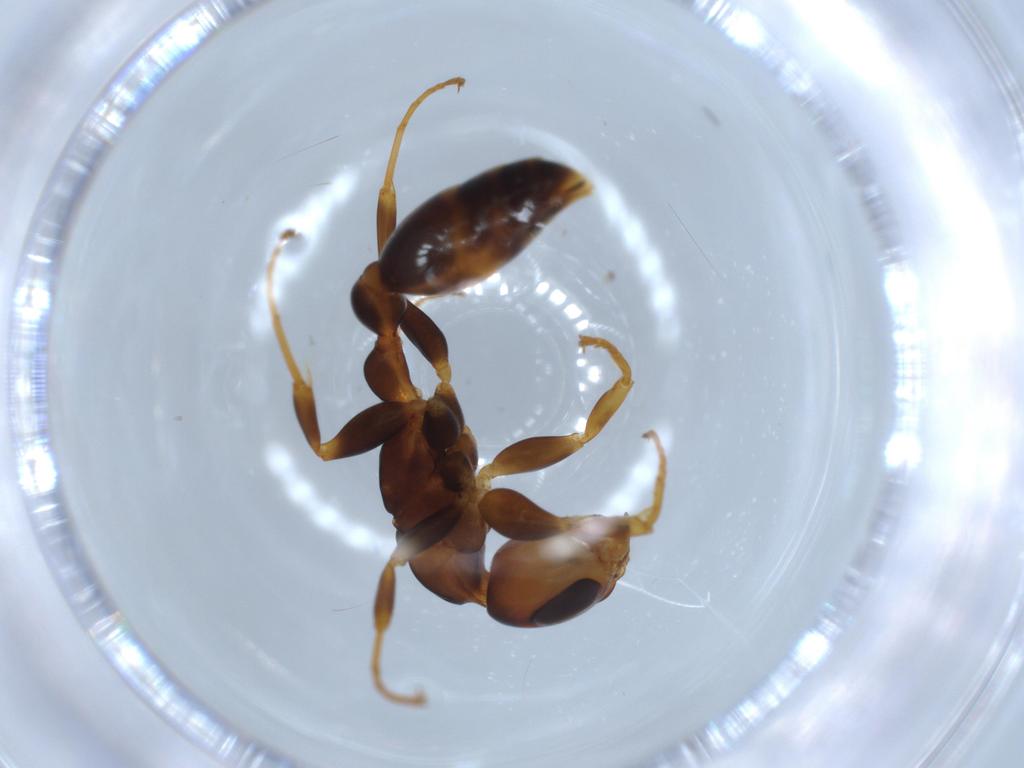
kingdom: Animalia
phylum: Arthropoda
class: Insecta
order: Hymenoptera
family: Formicidae
